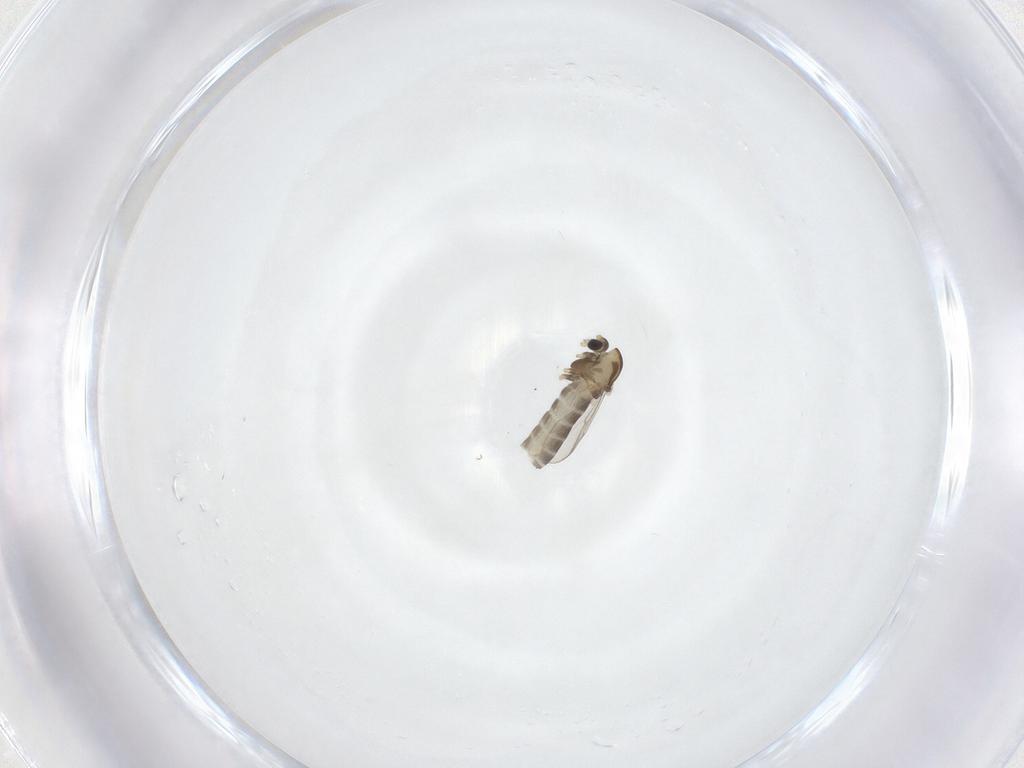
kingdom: Animalia
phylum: Arthropoda
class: Insecta
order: Diptera
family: Chironomidae
